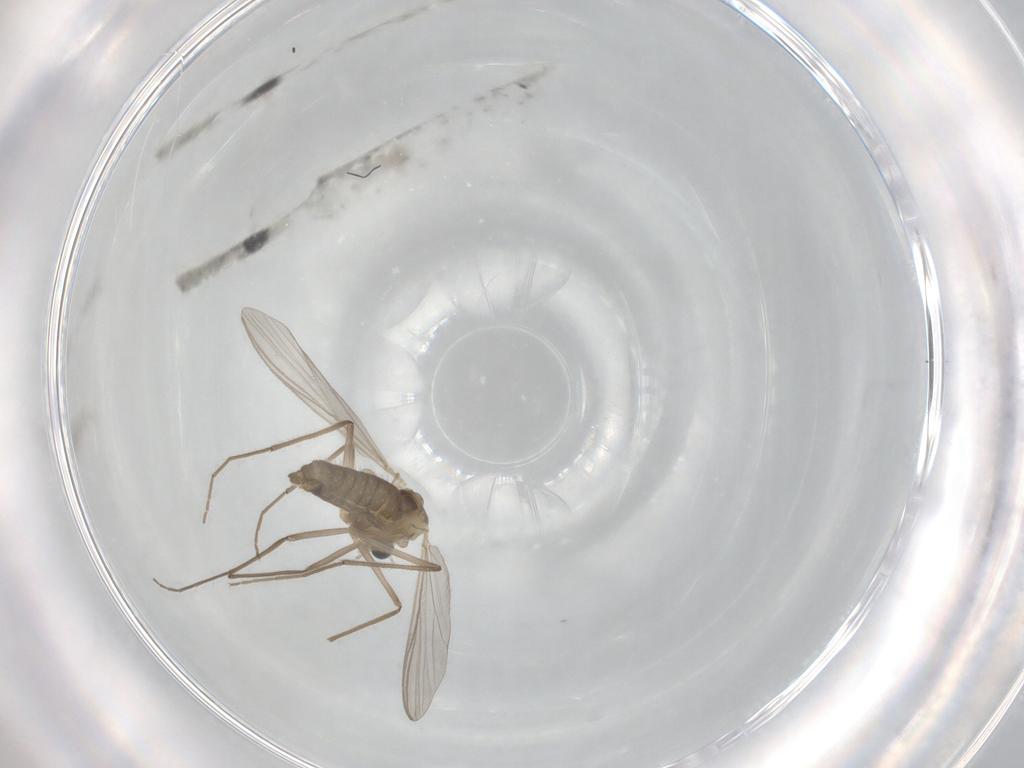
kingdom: Animalia
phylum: Arthropoda
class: Insecta
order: Diptera
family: Chironomidae
